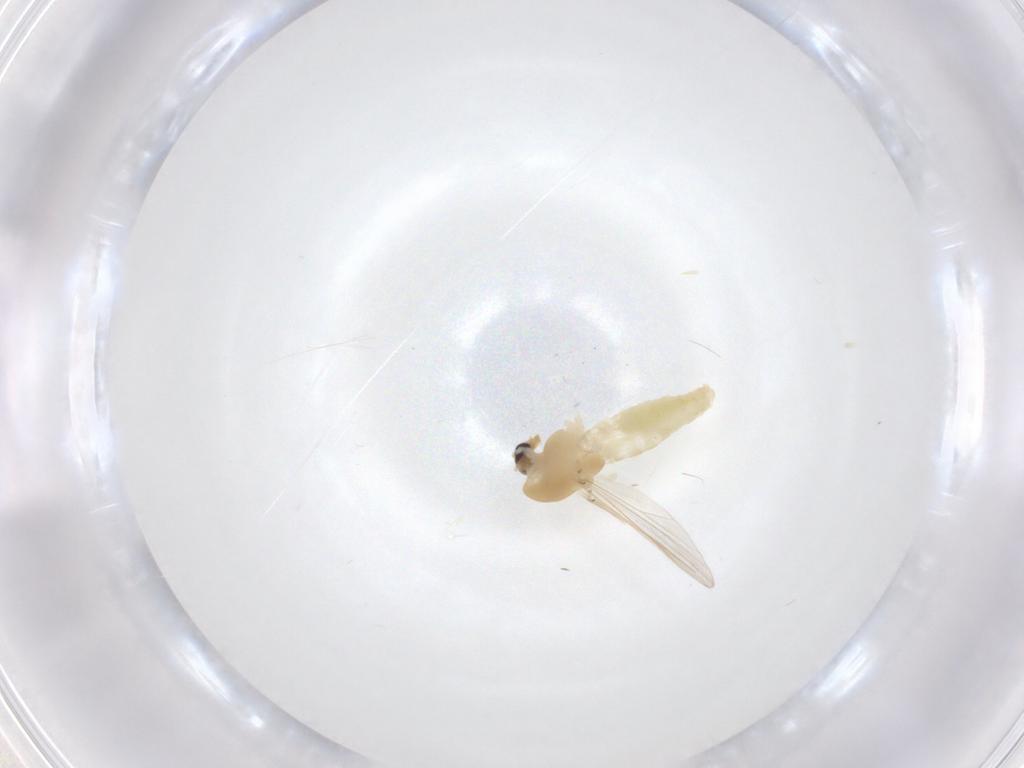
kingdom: Animalia
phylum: Arthropoda
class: Insecta
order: Diptera
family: Chironomidae
